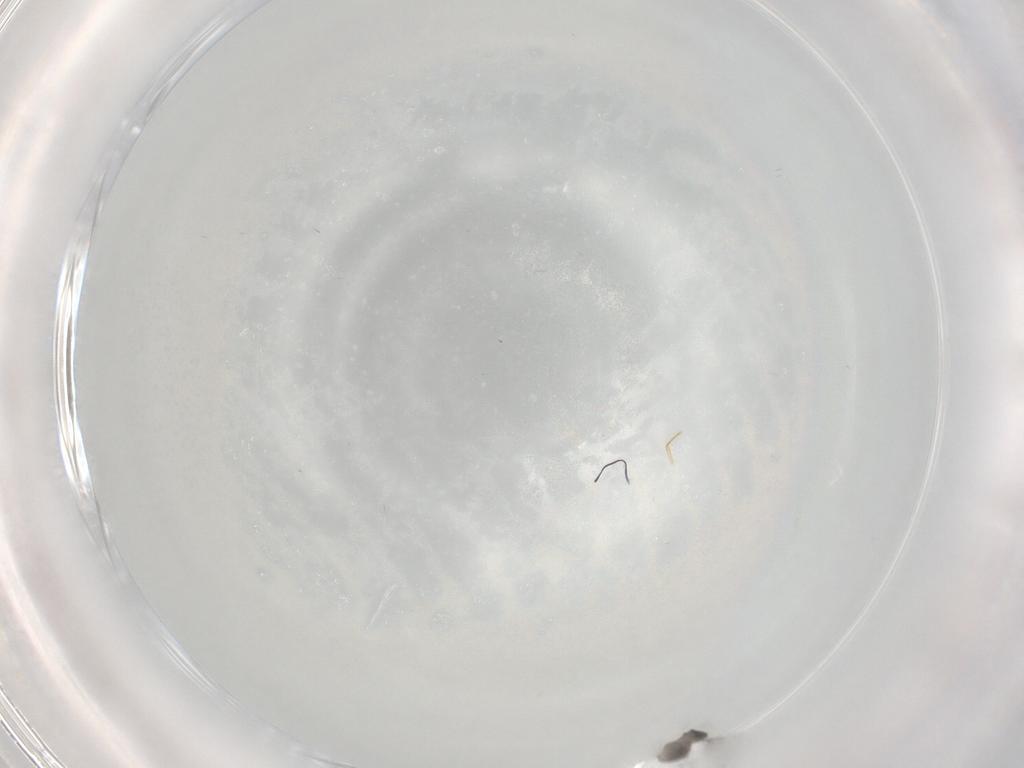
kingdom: Animalia
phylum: Arthropoda
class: Insecta
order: Diptera
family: Cecidomyiidae
